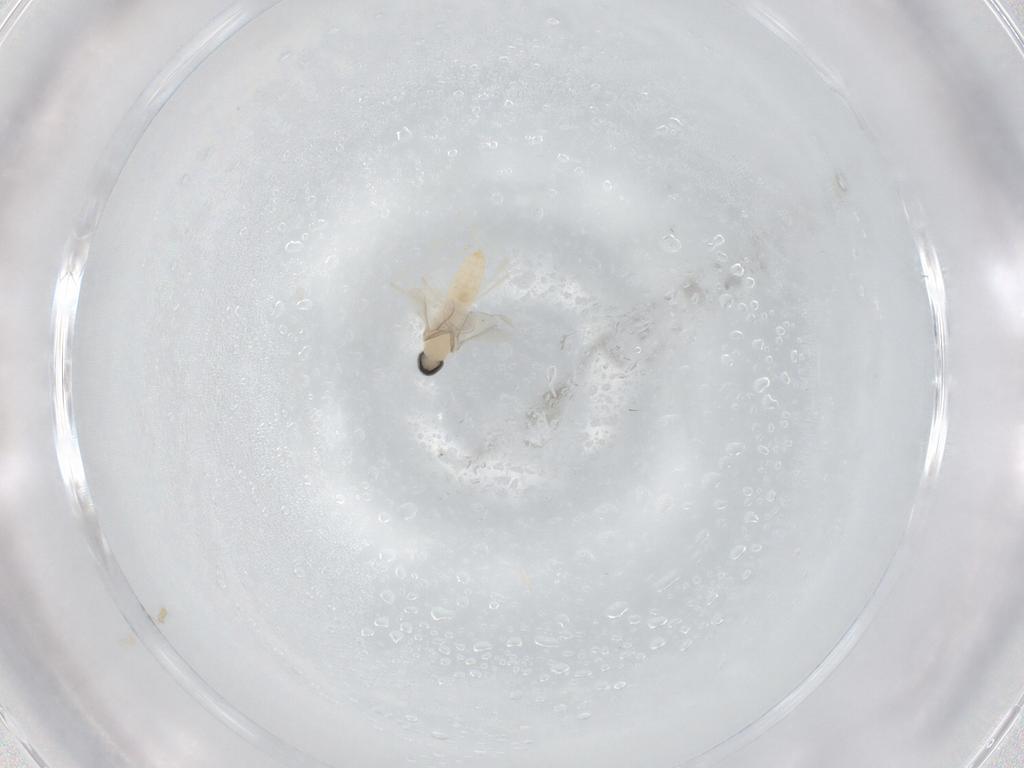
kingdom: Animalia
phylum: Arthropoda
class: Insecta
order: Diptera
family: Cecidomyiidae
